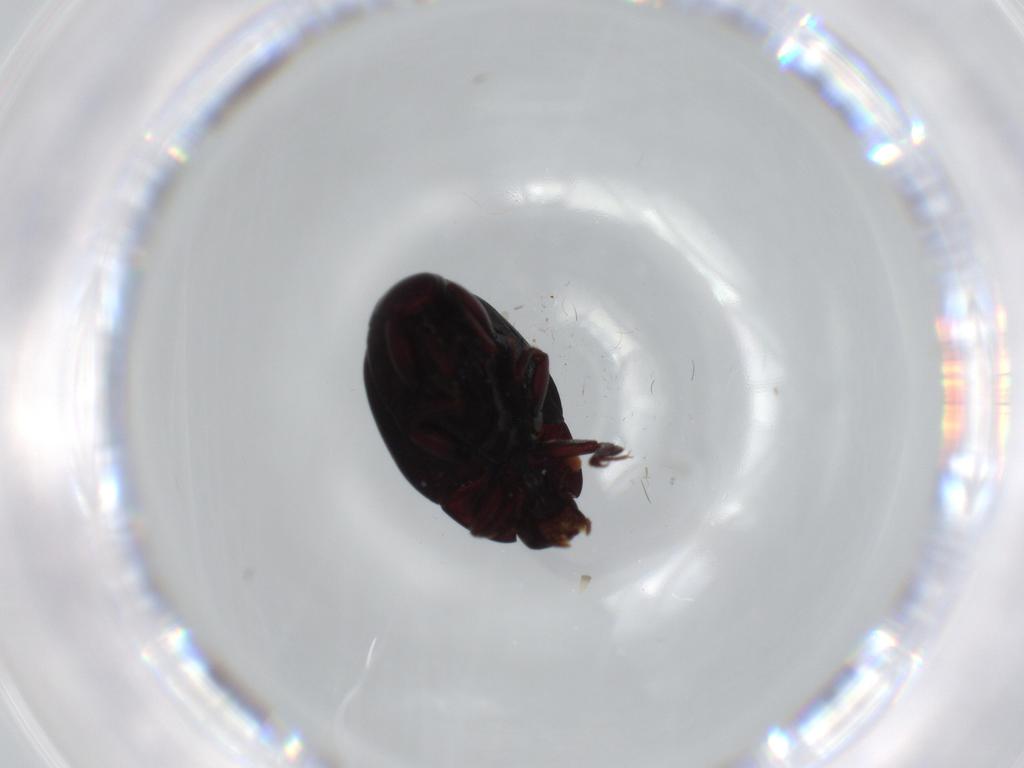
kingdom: Animalia
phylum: Arthropoda
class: Insecta
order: Coleoptera
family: Histeridae
